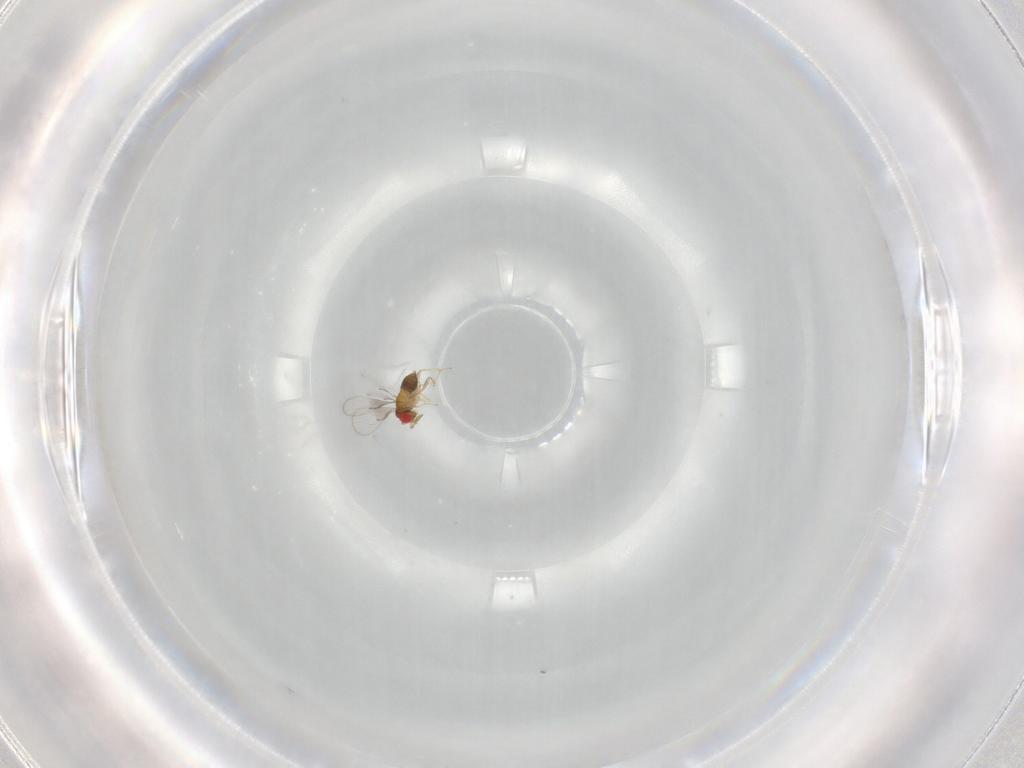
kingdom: Animalia
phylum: Arthropoda
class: Insecta
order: Hymenoptera
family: Trichogrammatidae
